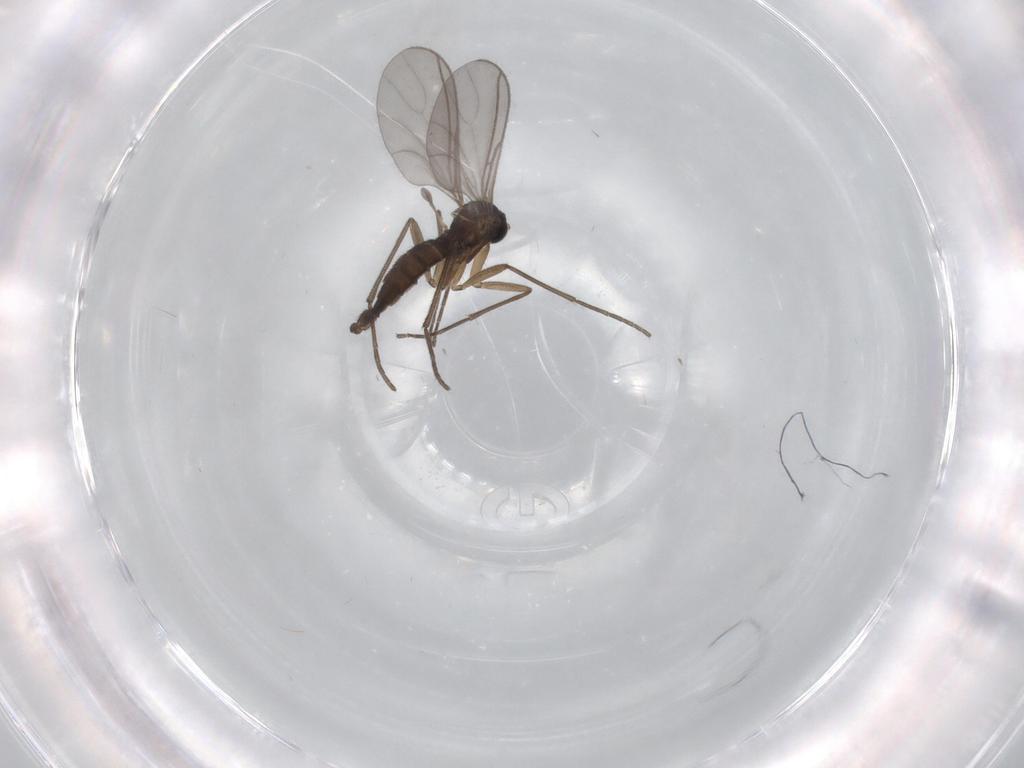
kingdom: Animalia
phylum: Arthropoda
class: Insecta
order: Diptera
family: Sciaridae
